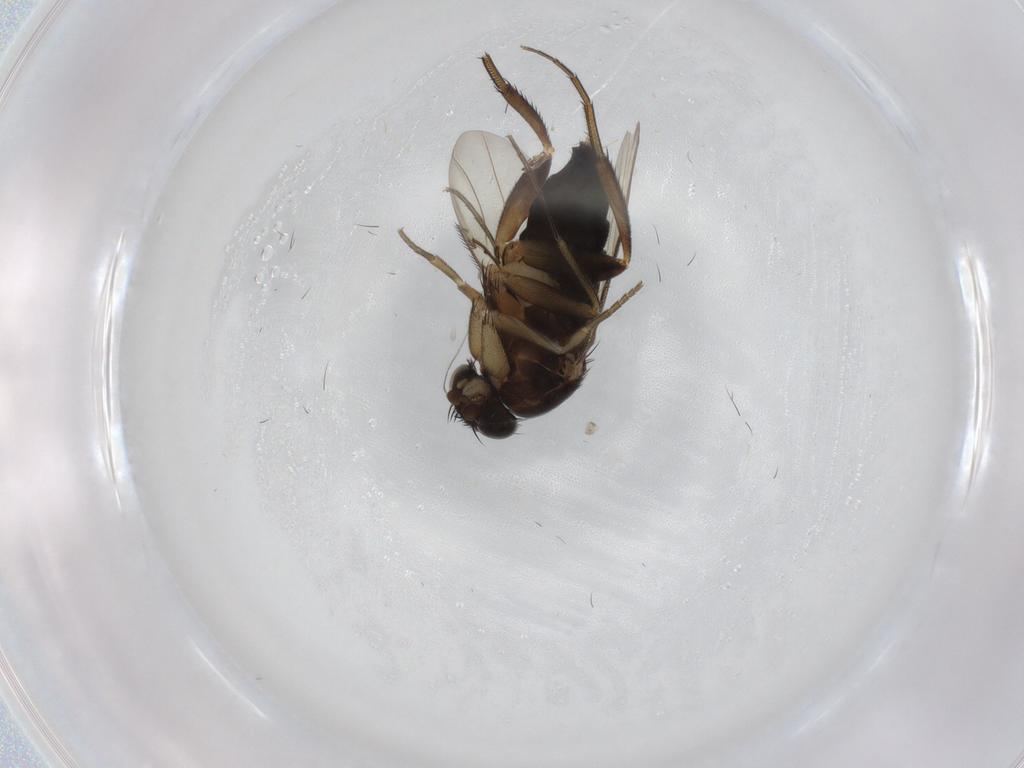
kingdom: Animalia
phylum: Arthropoda
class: Insecta
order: Diptera
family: Phoridae
